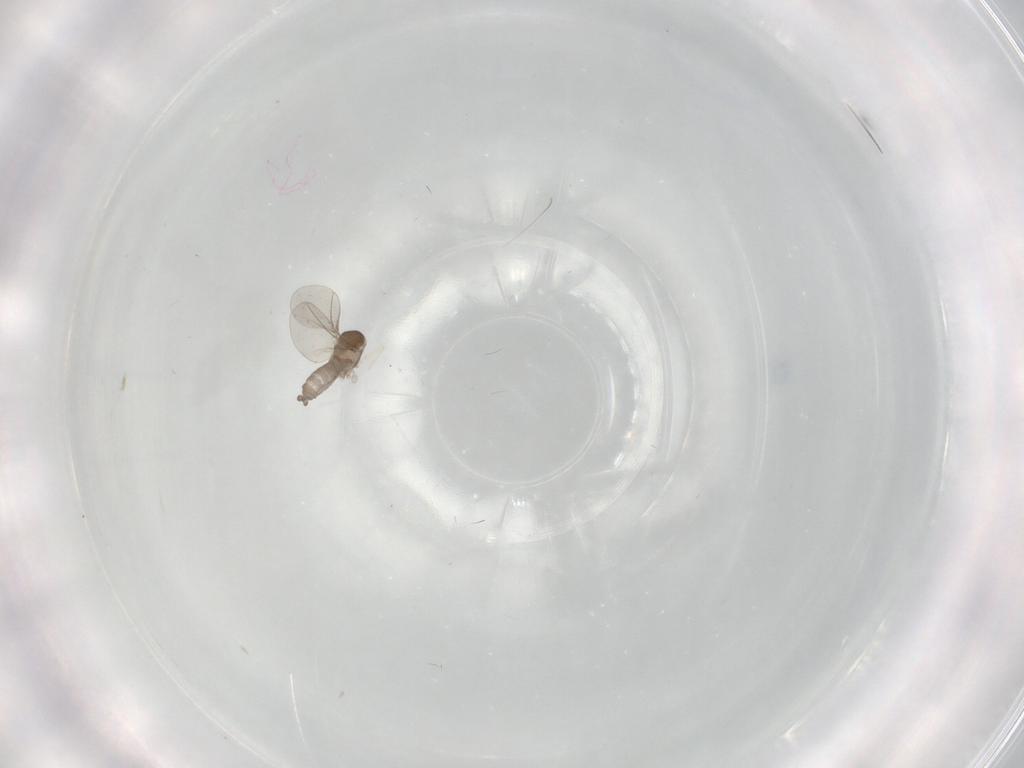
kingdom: Animalia
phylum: Arthropoda
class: Insecta
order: Diptera
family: Cecidomyiidae
